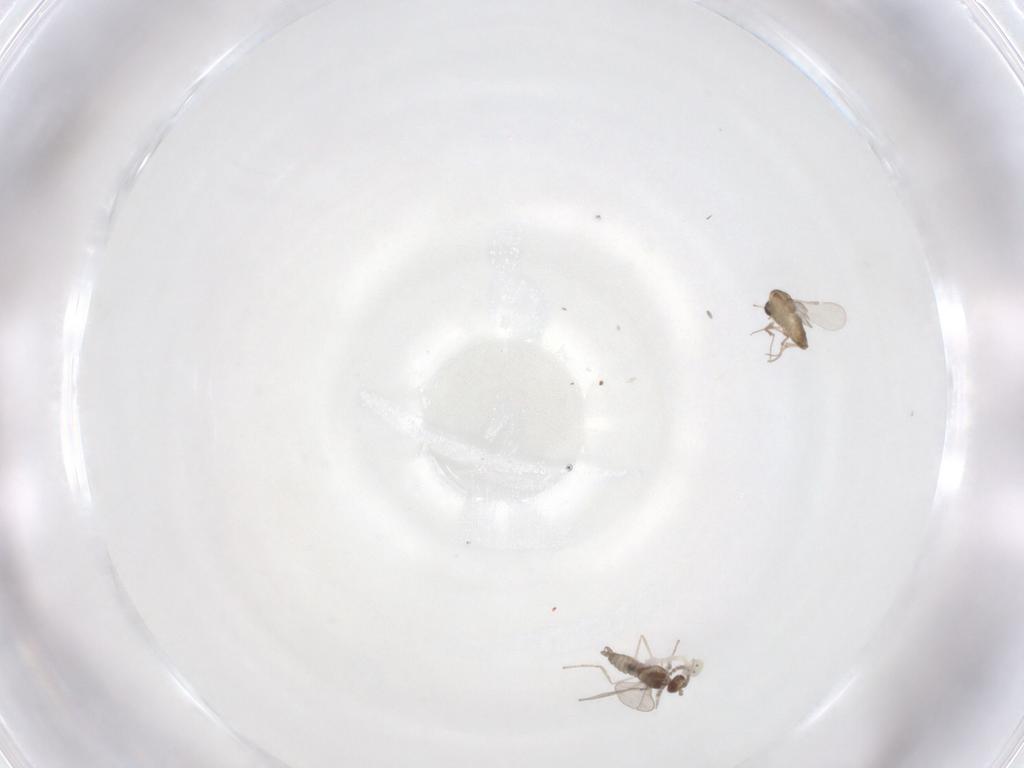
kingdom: Animalia
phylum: Arthropoda
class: Insecta
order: Diptera
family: Cecidomyiidae
